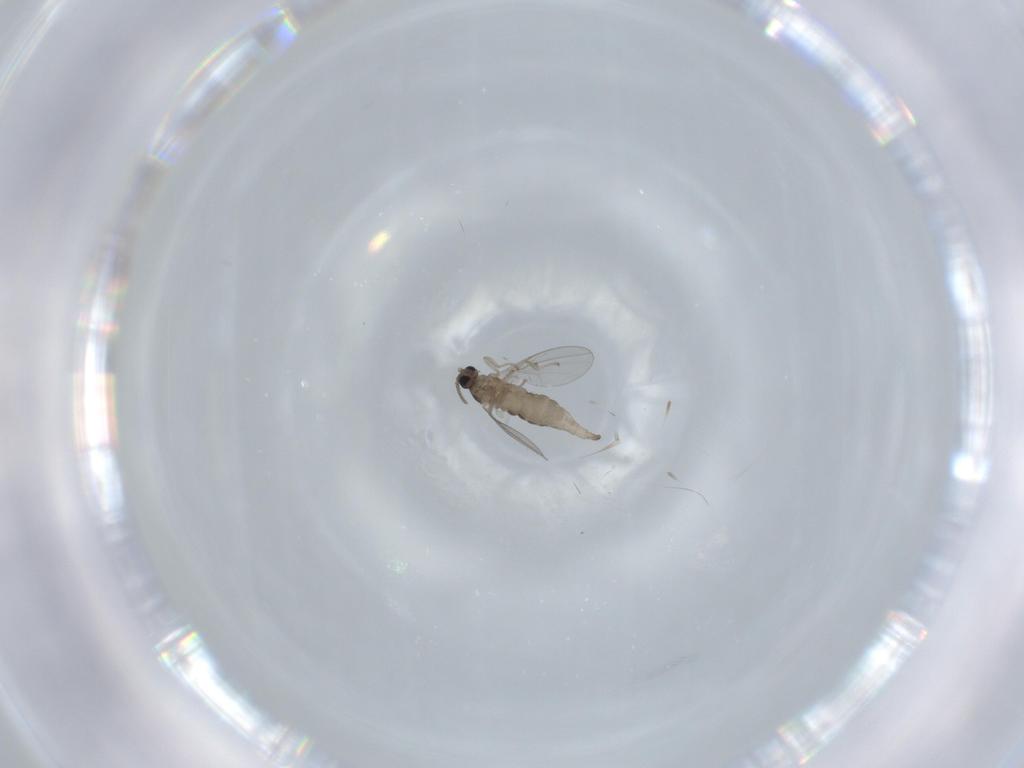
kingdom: Animalia
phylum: Arthropoda
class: Insecta
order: Diptera
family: Cecidomyiidae
